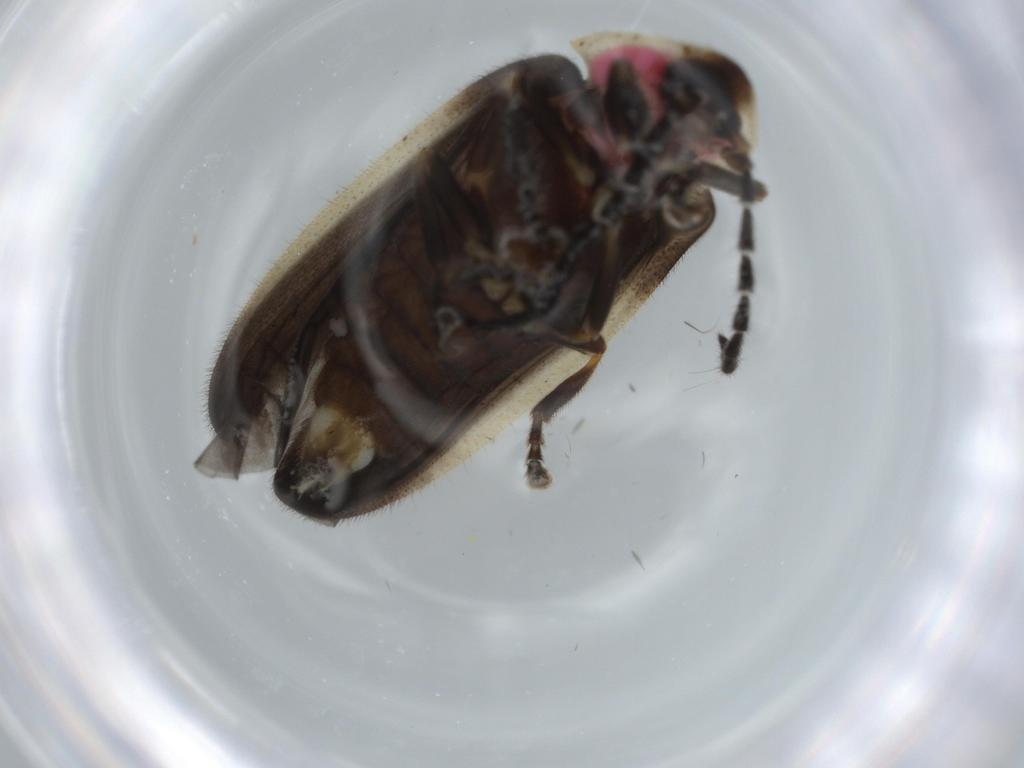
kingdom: Animalia
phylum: Arthropoda
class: Insecta
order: Coleoptera
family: Lampyridae
